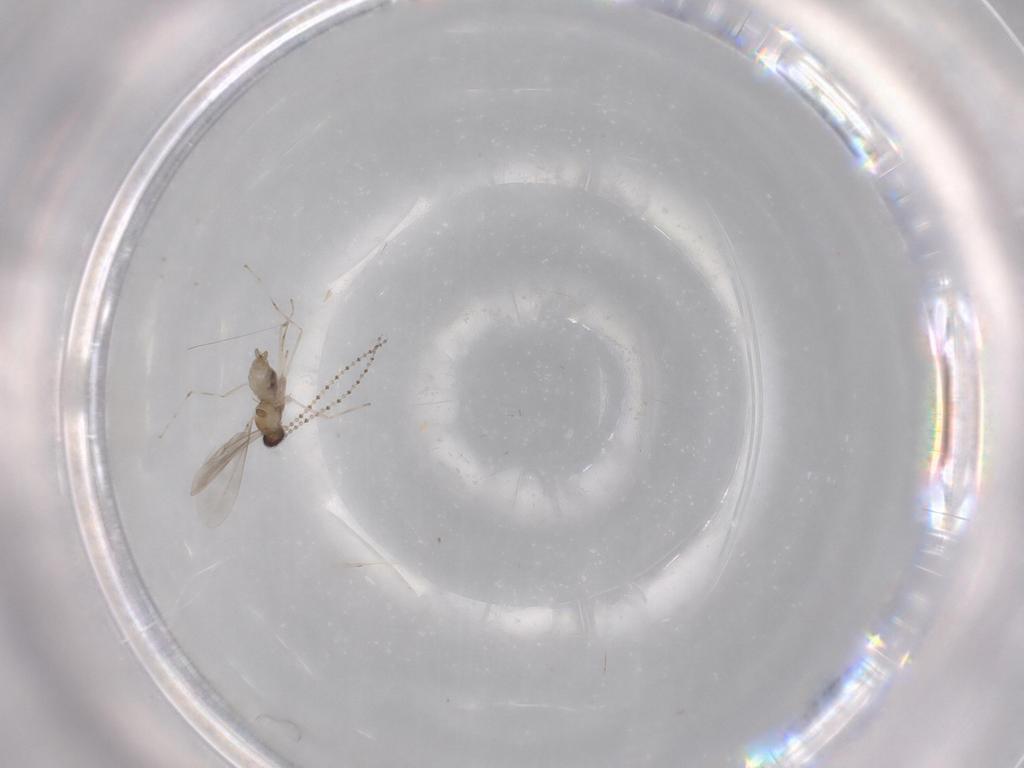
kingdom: Animalia
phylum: Arthropoda
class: Insecta
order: Diptera
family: Cecidomyiidae
